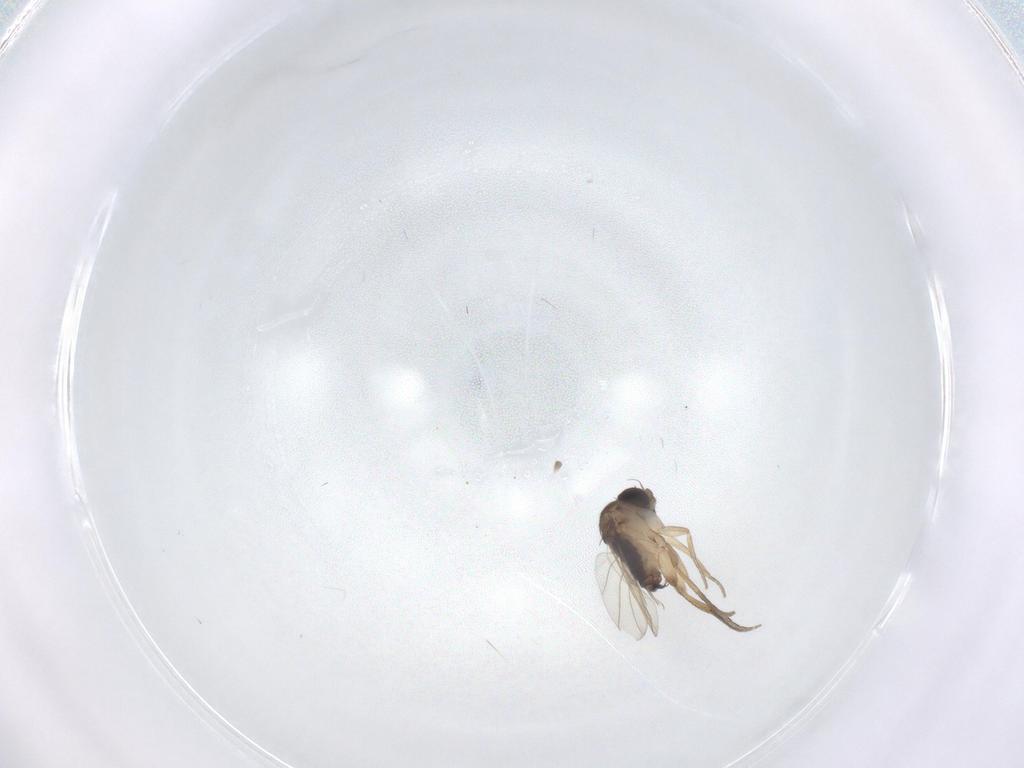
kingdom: Animalia
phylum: Arthropoda
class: Insecta
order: Diptera
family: Phoridae
